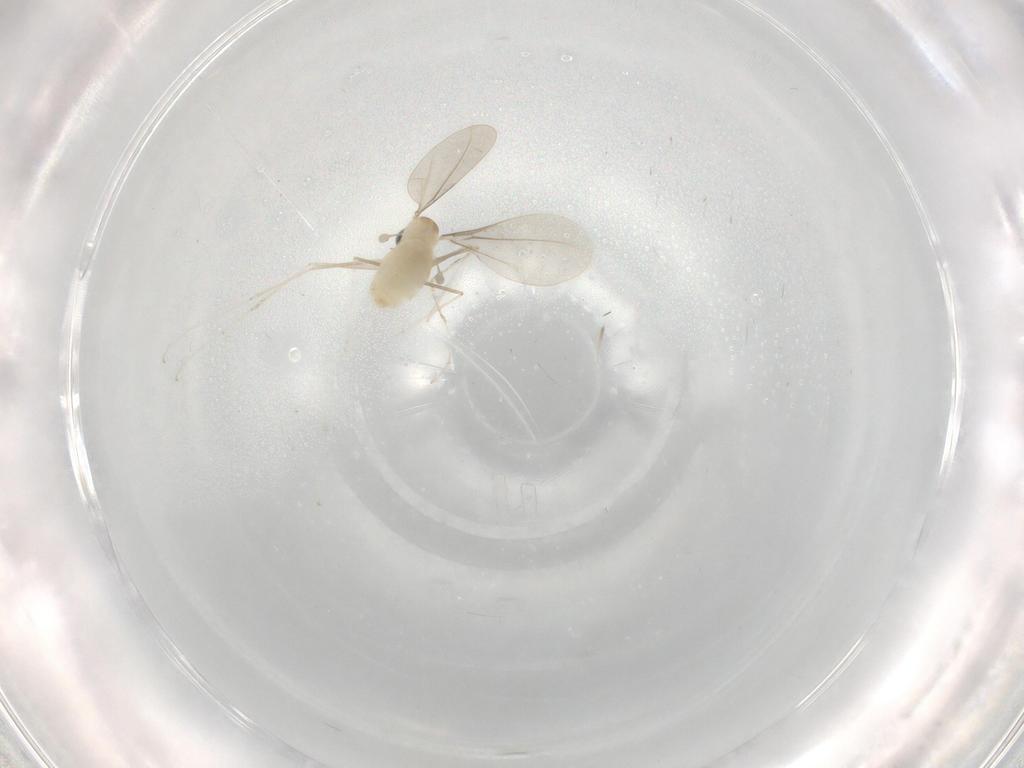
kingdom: Animalia
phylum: Arthropoda
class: Insecta
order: Diptera
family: Cecidomyiidae
